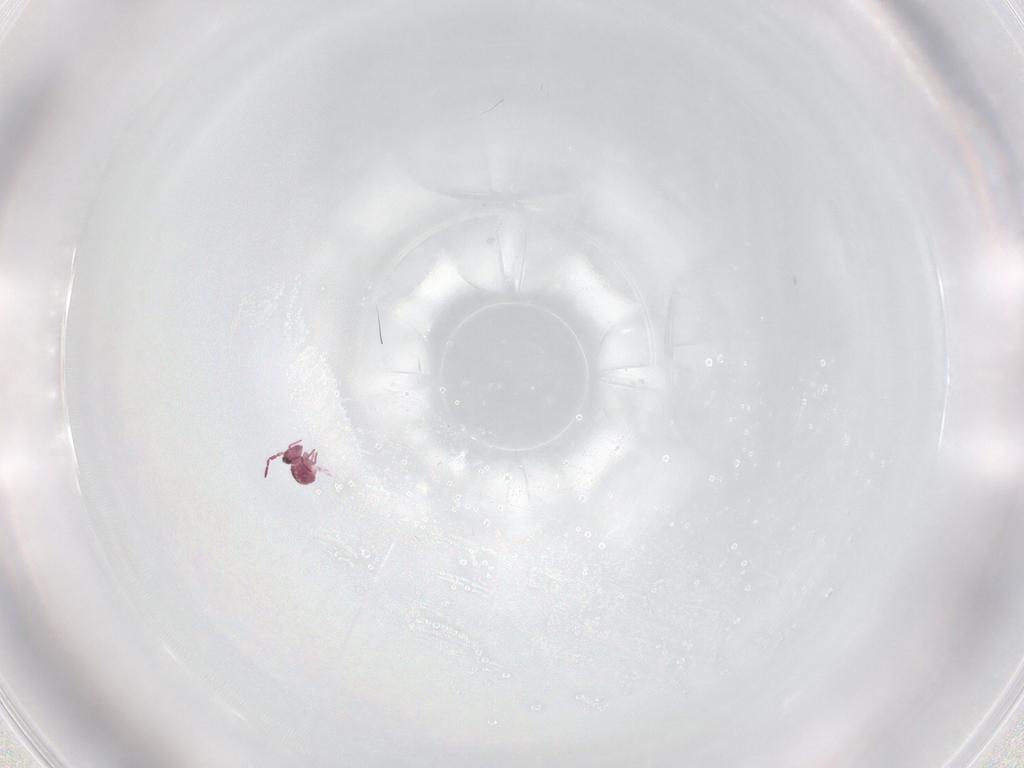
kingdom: Animalia
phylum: Arthropoda
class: Collembola
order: Symphypleona
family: Sminthurididae
